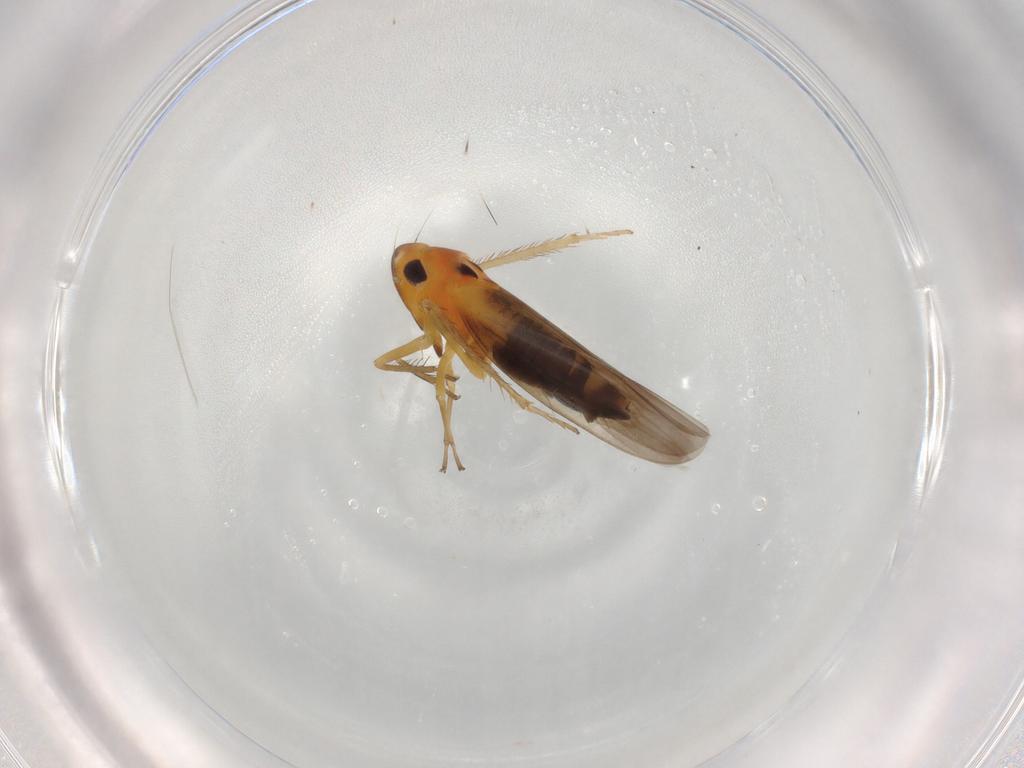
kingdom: Animalia
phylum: Arthropoda
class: Insecta
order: Hemiptera
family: Cicadellidae
